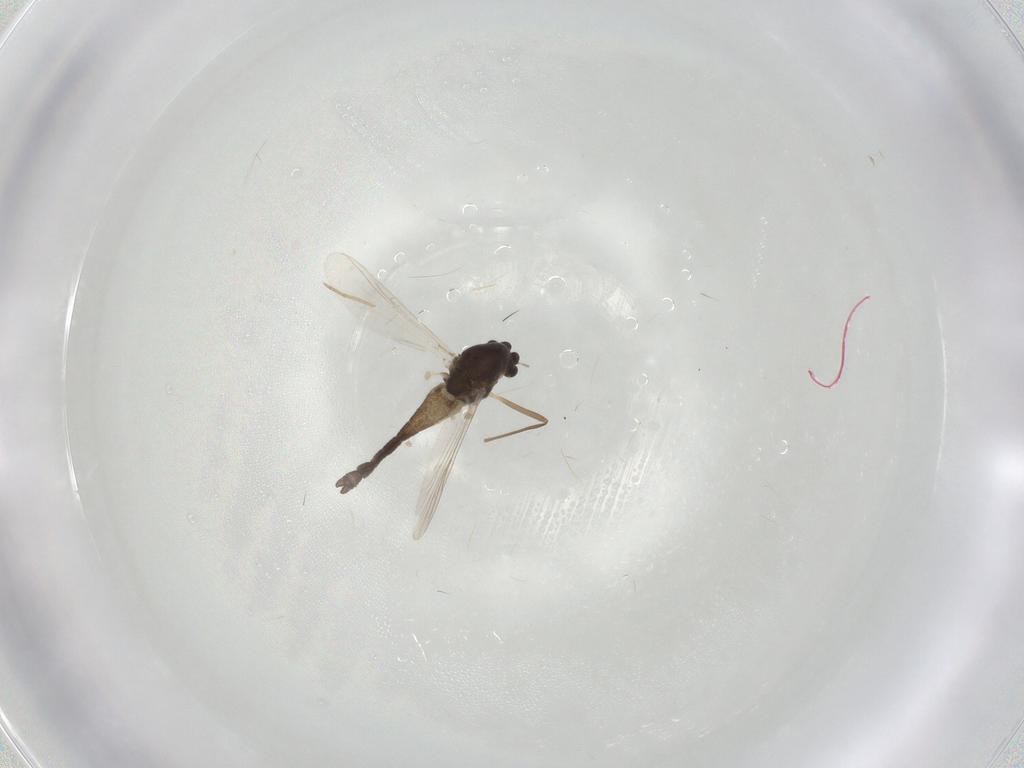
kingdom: Animalia
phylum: Arthropoda
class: Insecta
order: Diptera
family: Chironomidae
